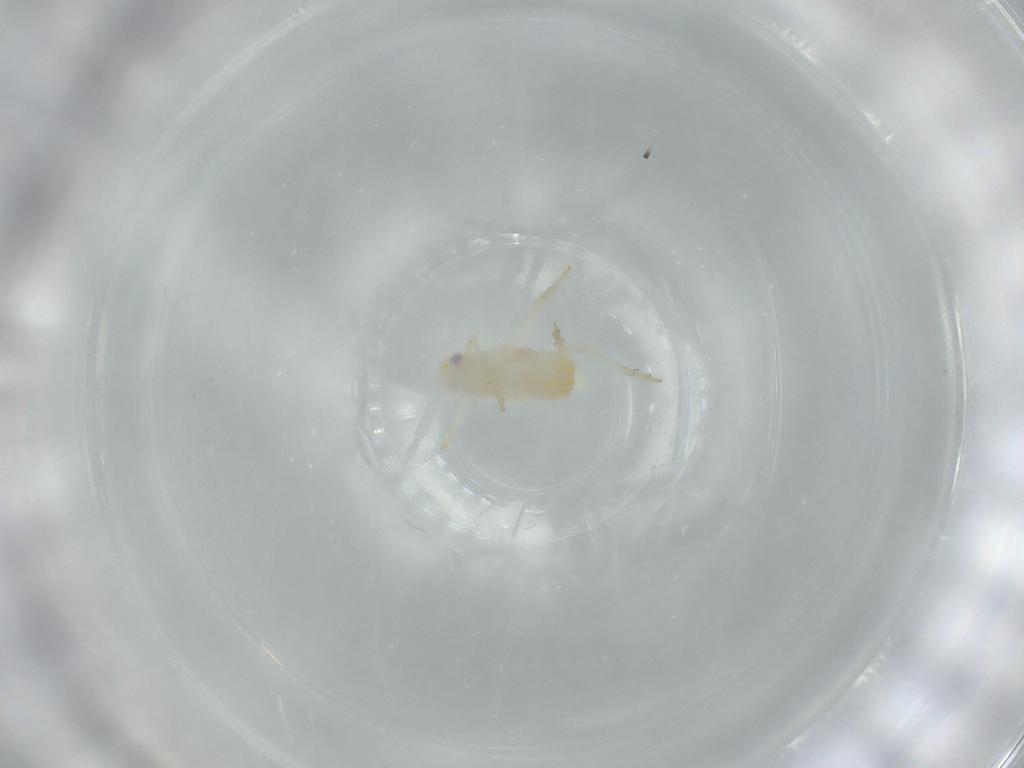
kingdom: Animalia
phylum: Arthropoda
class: Insecta
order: Hemiptera
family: Flatidae
